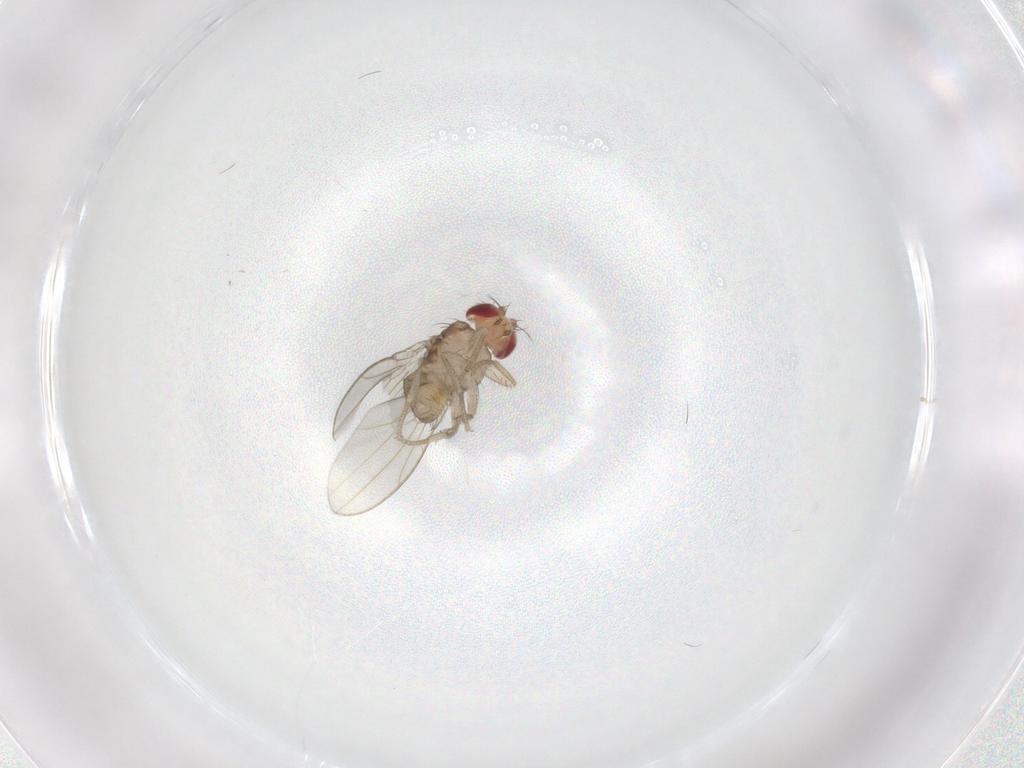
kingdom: Animalia
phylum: Arthropoda
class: Insecta
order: Diptera
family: Drosophilidae
